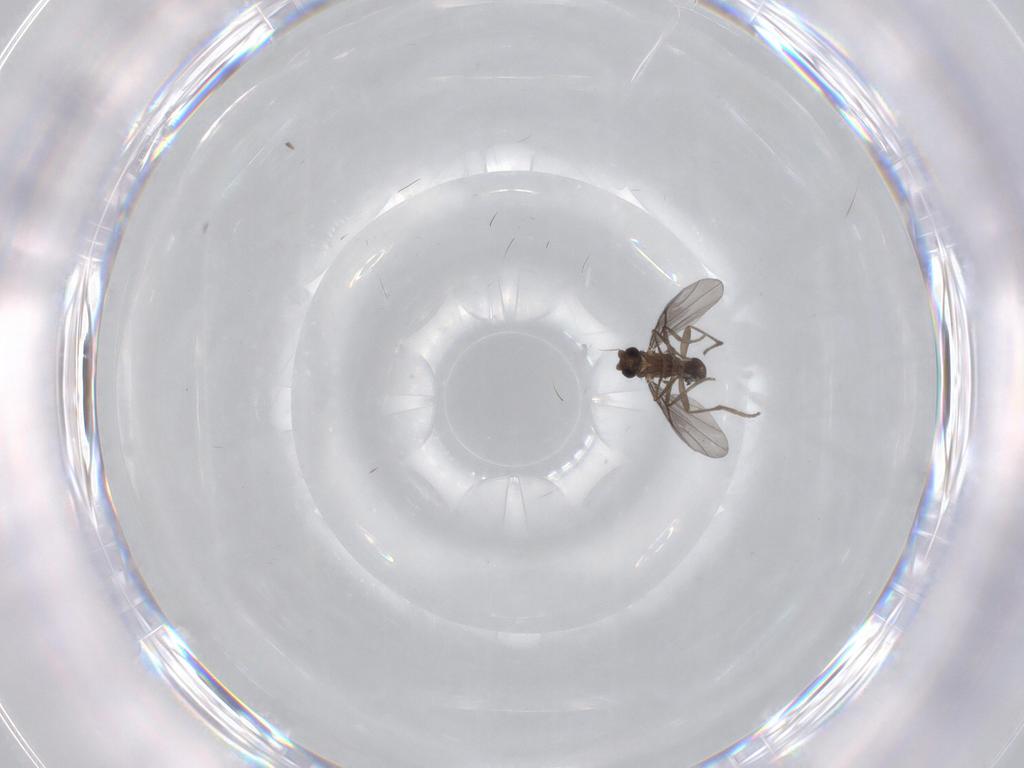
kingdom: Animalia
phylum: Arthropoda
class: Insecta
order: Diptera
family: Phoridae
